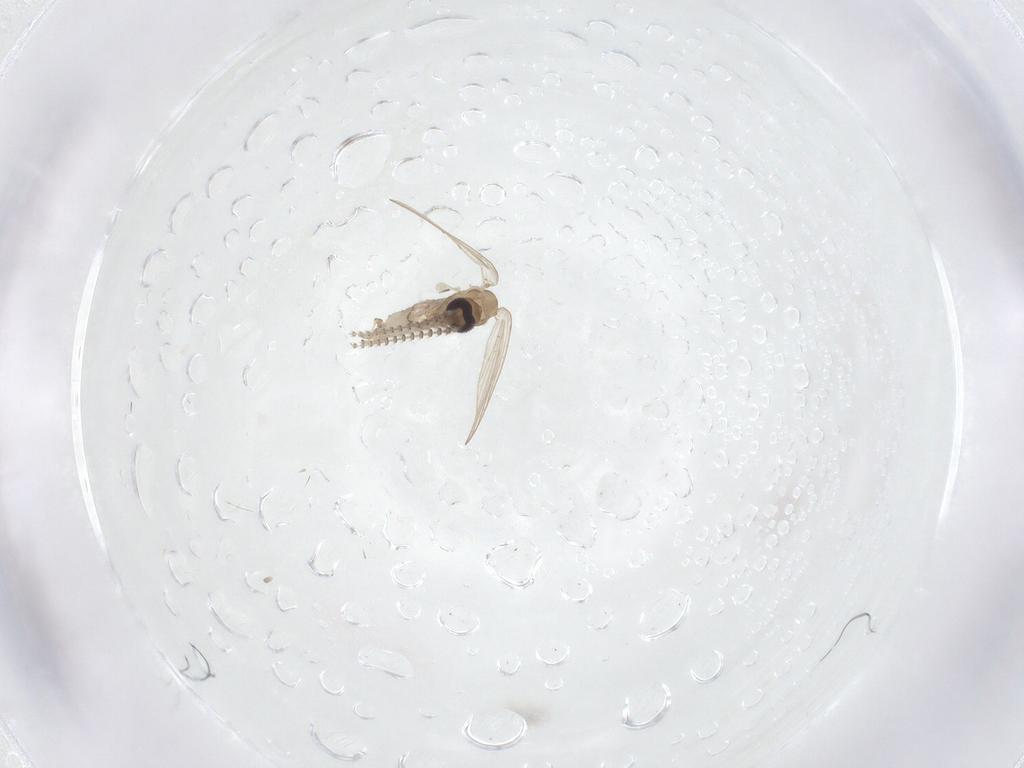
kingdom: Animalia
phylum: Arthropoda
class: Insecta
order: Diptera
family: Psychodidae
